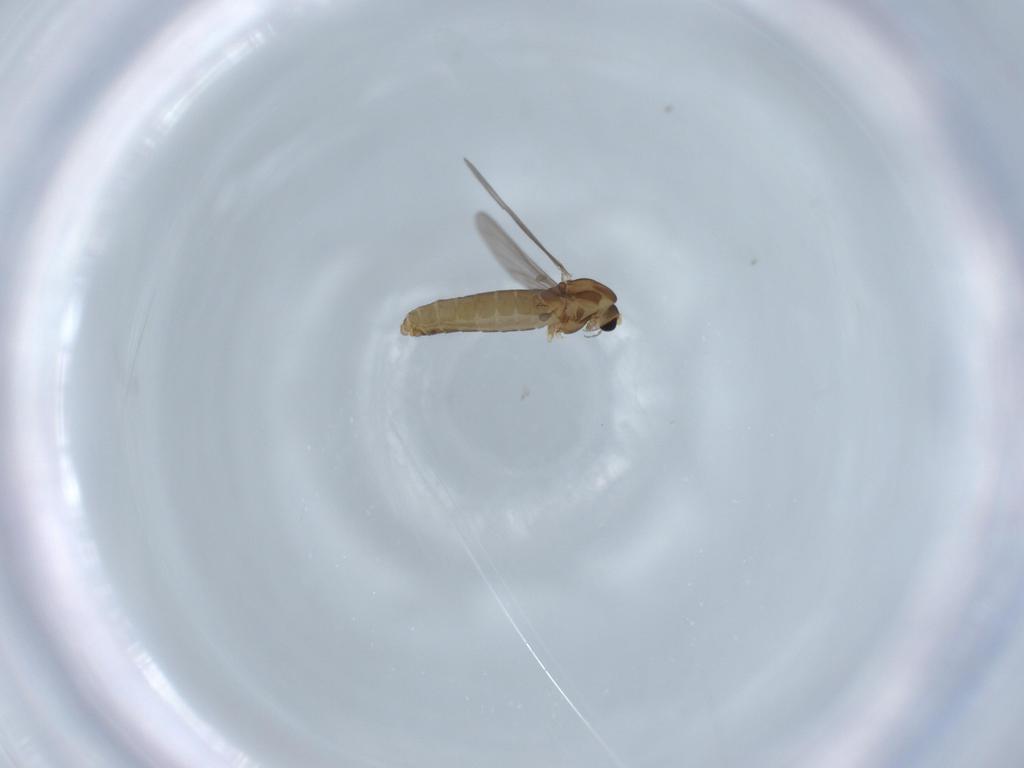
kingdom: Animalia
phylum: Arthropoda
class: Insecta
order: Diptera
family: Chironomidae
